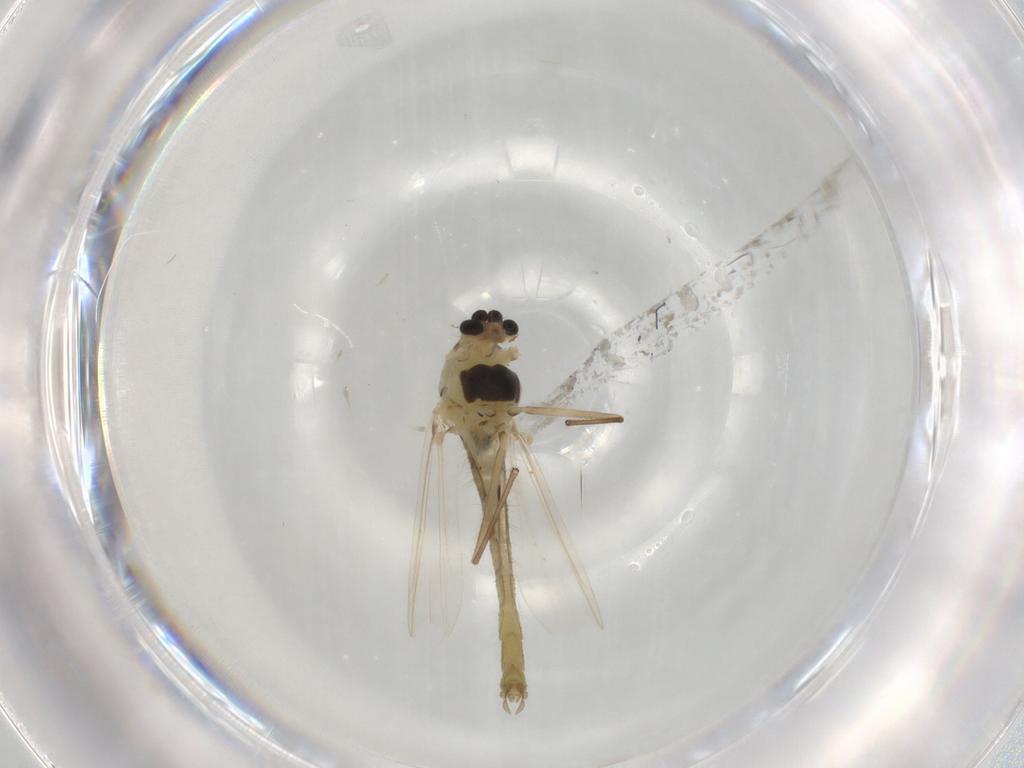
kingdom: Animalia
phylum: Arthropoda
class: Insecta
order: Diptera
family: Chironomidae
